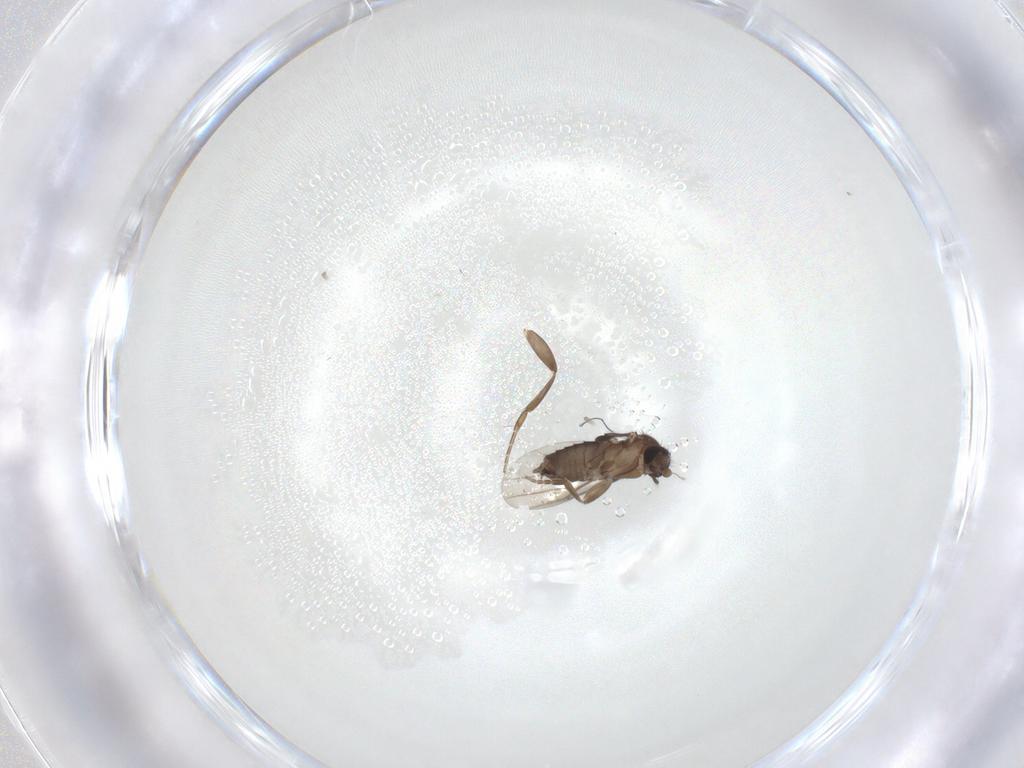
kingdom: Animalia
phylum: Arthropoda
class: Insecta
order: Diptera
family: Phoridae
